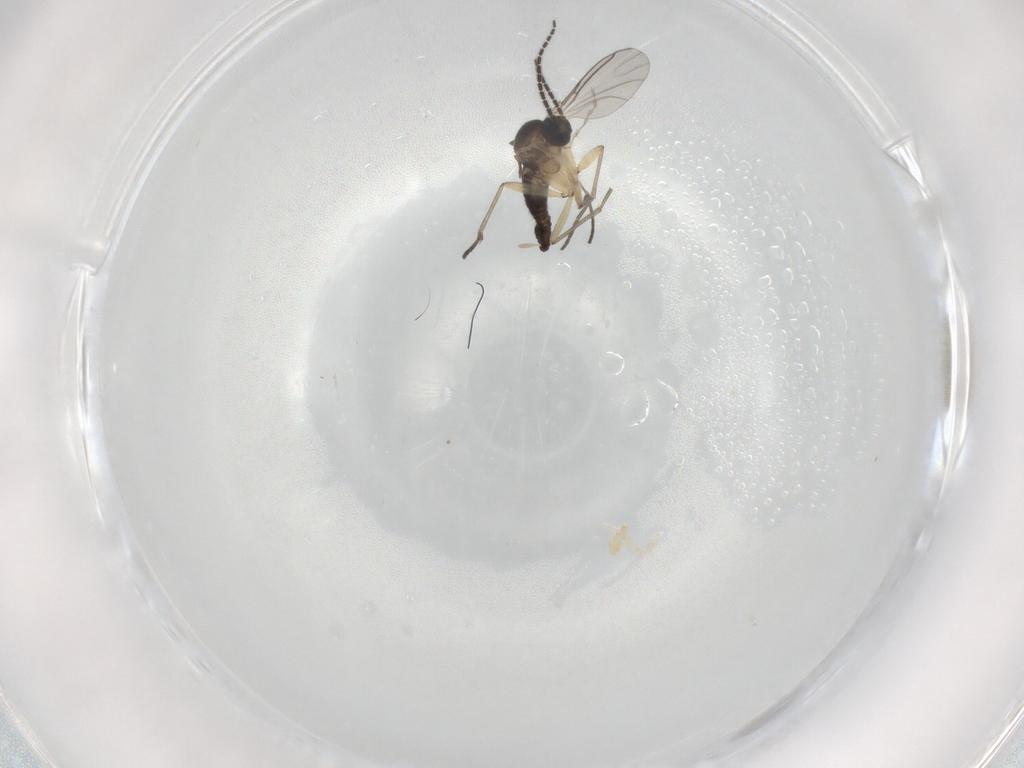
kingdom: Animalia
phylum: Arthropoda
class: Insecta
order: Diptera
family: Cecidomyiidae
